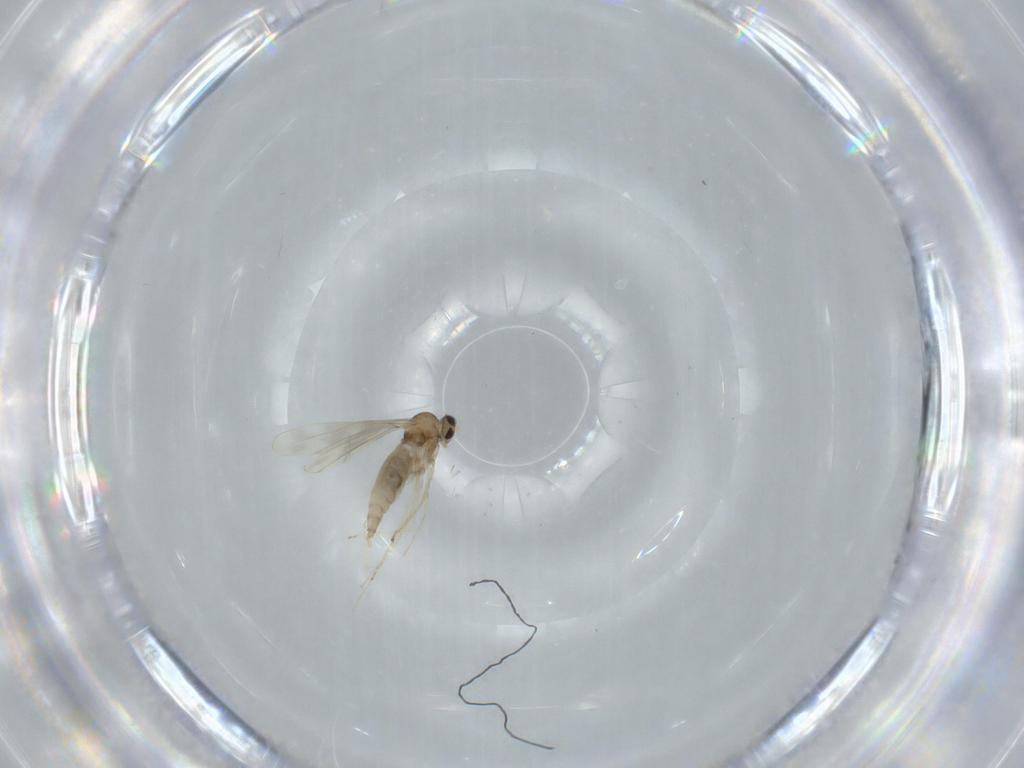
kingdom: Animalia
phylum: Arthropoda
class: Insecta
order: Diptera
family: Cecidomyiidae
